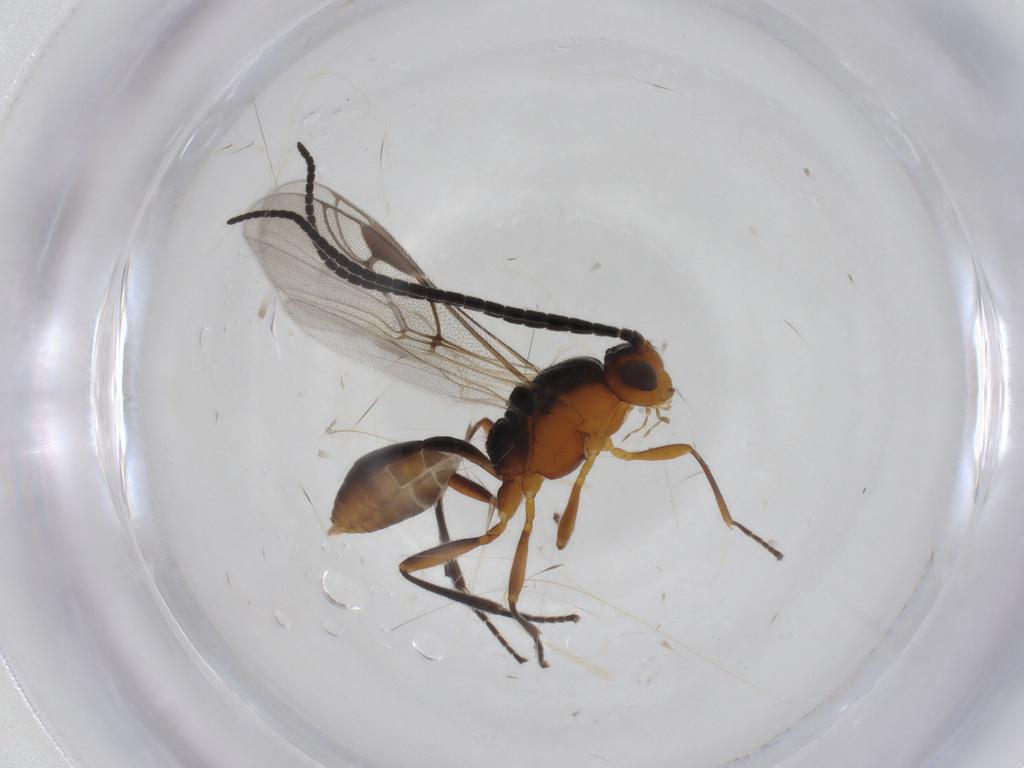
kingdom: Animalia
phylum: Arthropoda
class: Insecta
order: Hymenoptera
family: Braconidae
